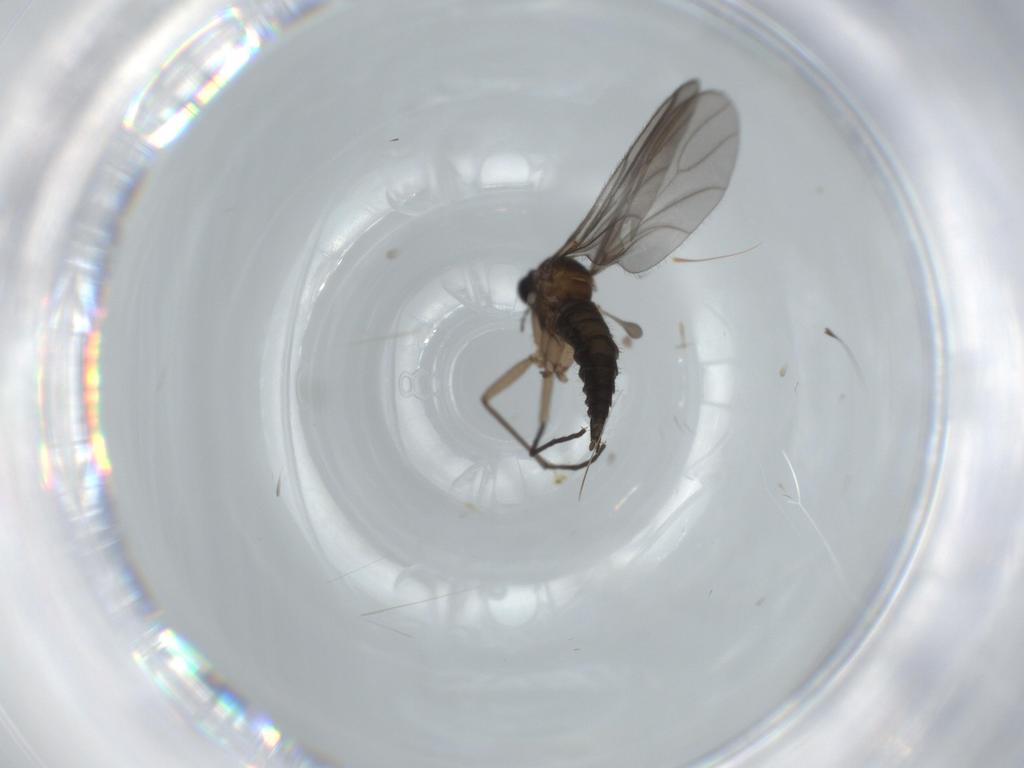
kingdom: Animalia
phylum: Arthropoda
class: Insecta
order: Diptera
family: Sciaridae
